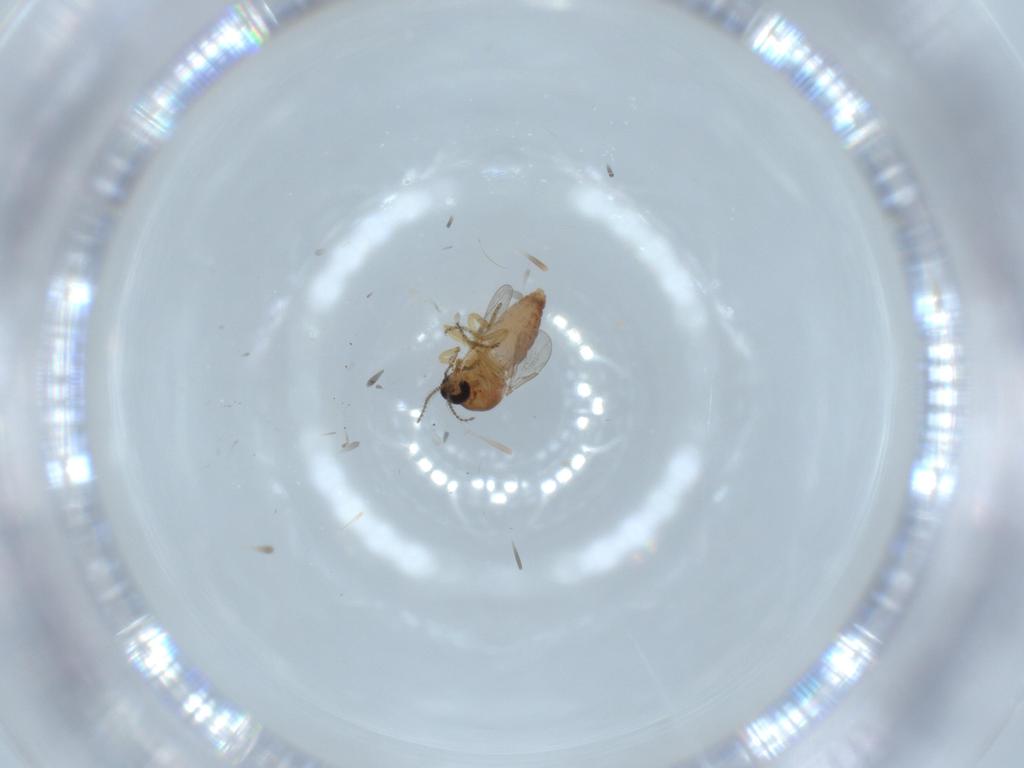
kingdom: Animalia
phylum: Arthropoda
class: Insecta
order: Diptera
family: Ceratopogonidae
